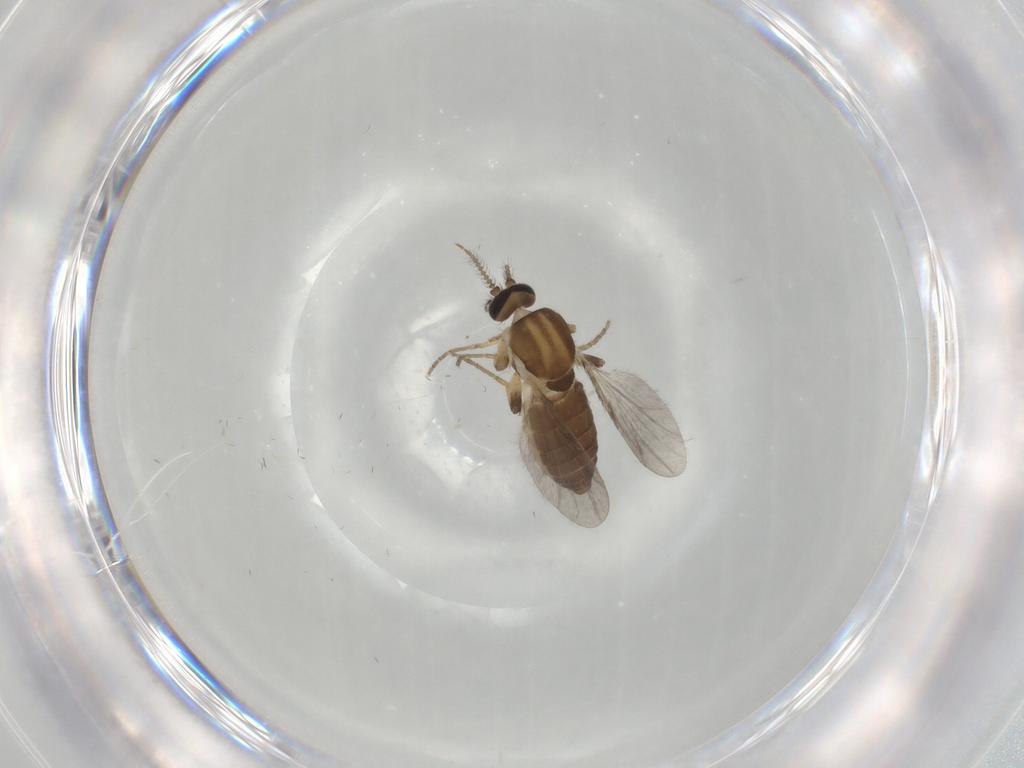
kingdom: Animalia
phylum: Arthropoda
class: Insecta
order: Diptera
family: Ceratopogonidae
